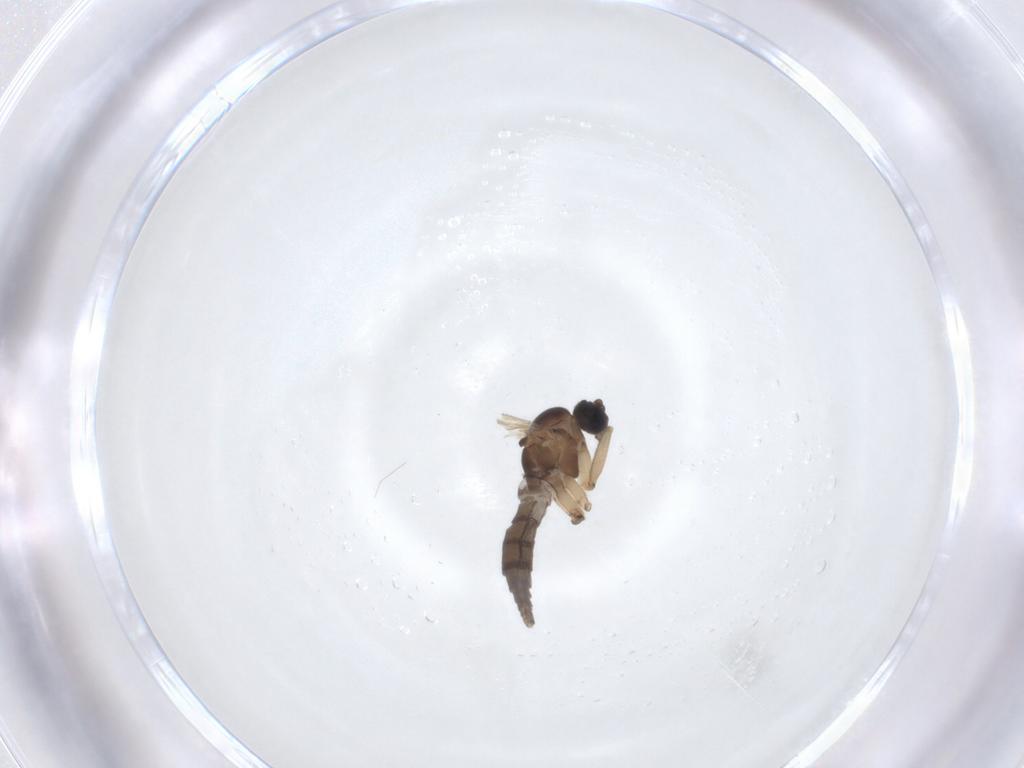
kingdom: Animalia
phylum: Arthropoda
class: Insecta
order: Diptera
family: Sciaridae
